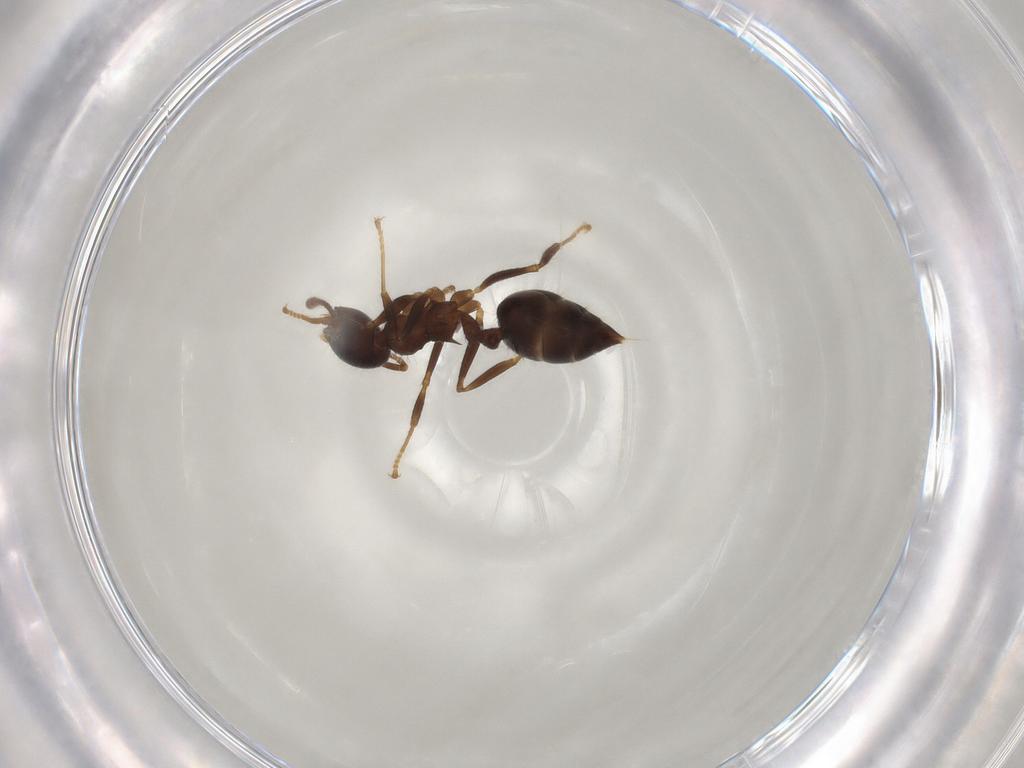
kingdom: Animalia
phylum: Arthropoda
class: Insecta
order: Hymenoptera
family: Formicidae
